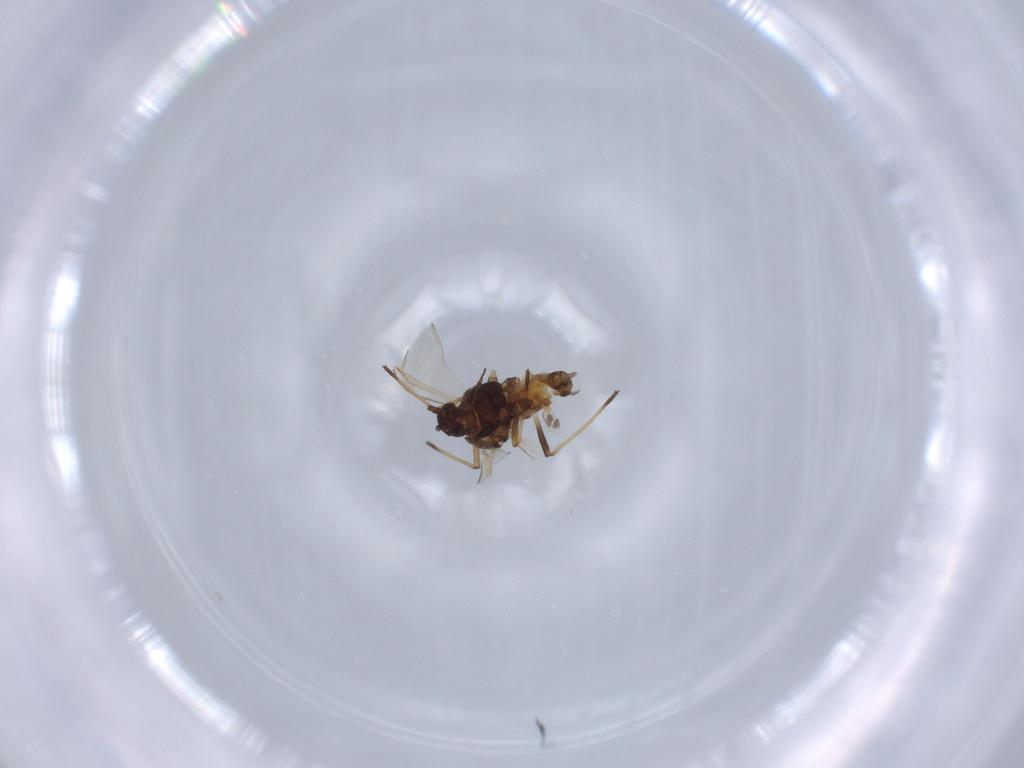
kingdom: Animalia
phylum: Arthropoda
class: Insecta
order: Hemiptera
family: Aphididae
